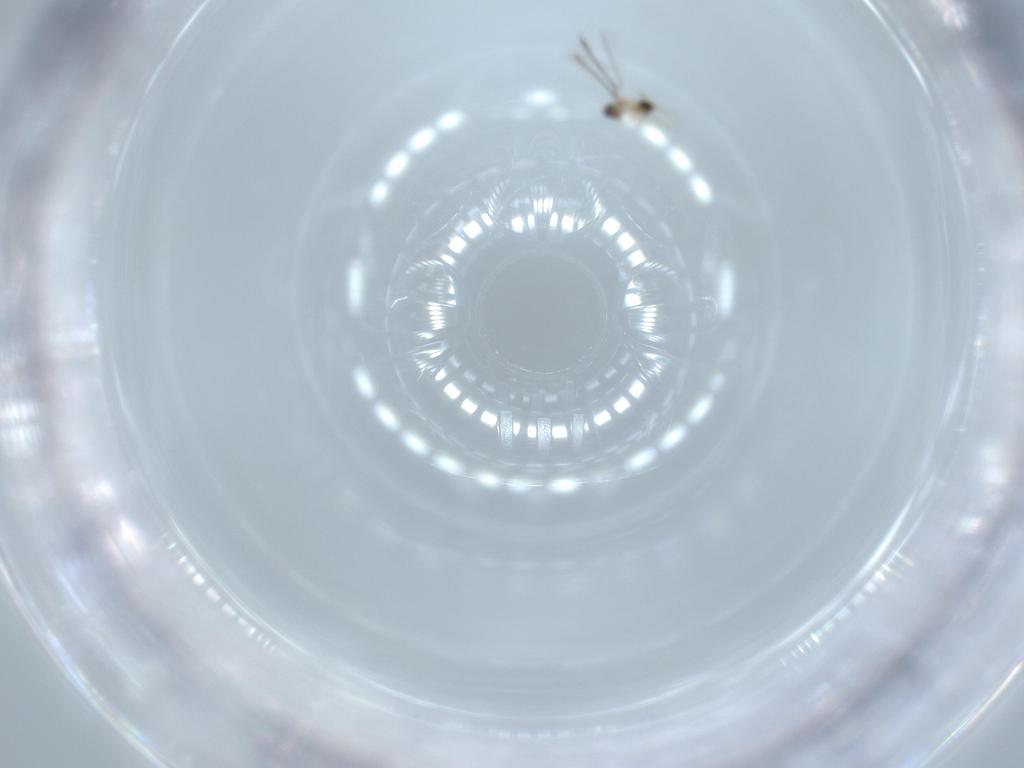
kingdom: Animalia
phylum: Arthropoda
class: Insecta
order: Hymenoptera
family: Mymaridae
